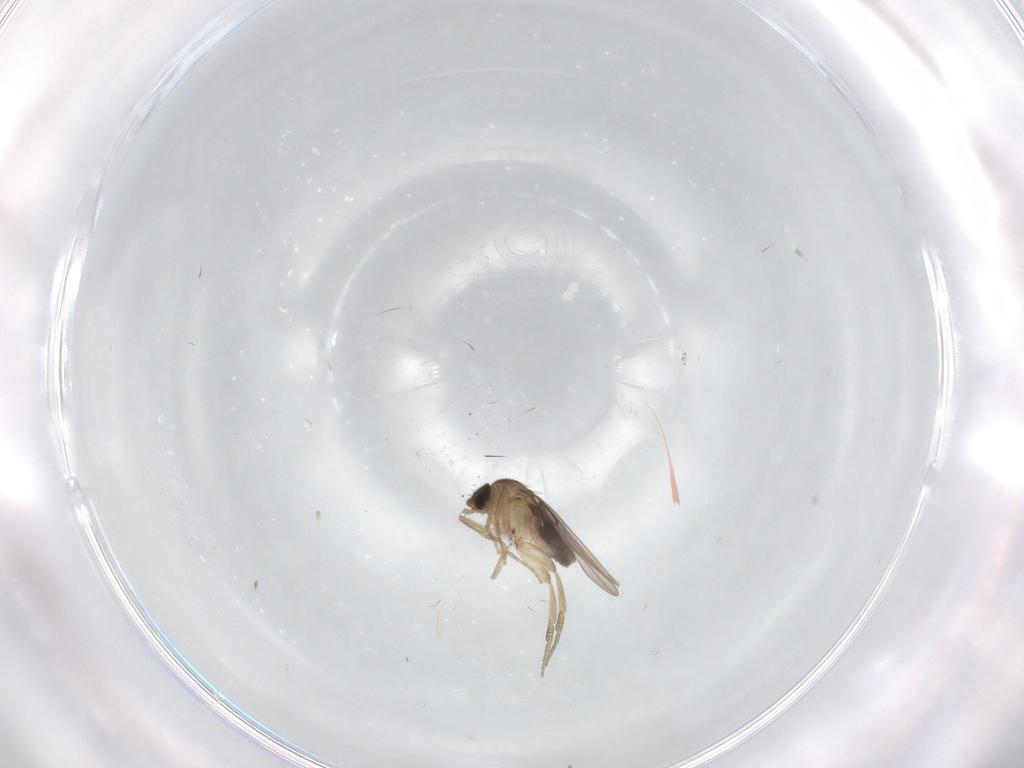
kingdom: Animalia
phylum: Arthropoda
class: Insecta
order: Diptera
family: Phoridae
